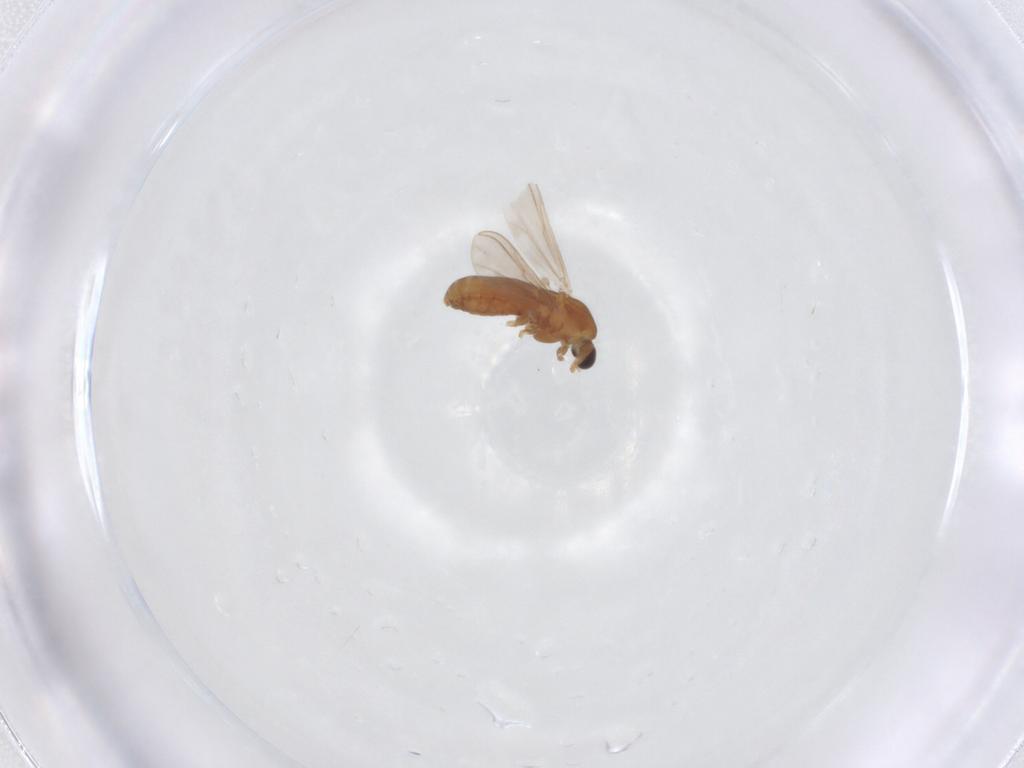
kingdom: Animalia
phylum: Arthropoda
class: Insecta
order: Diptera
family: Chironomidae
